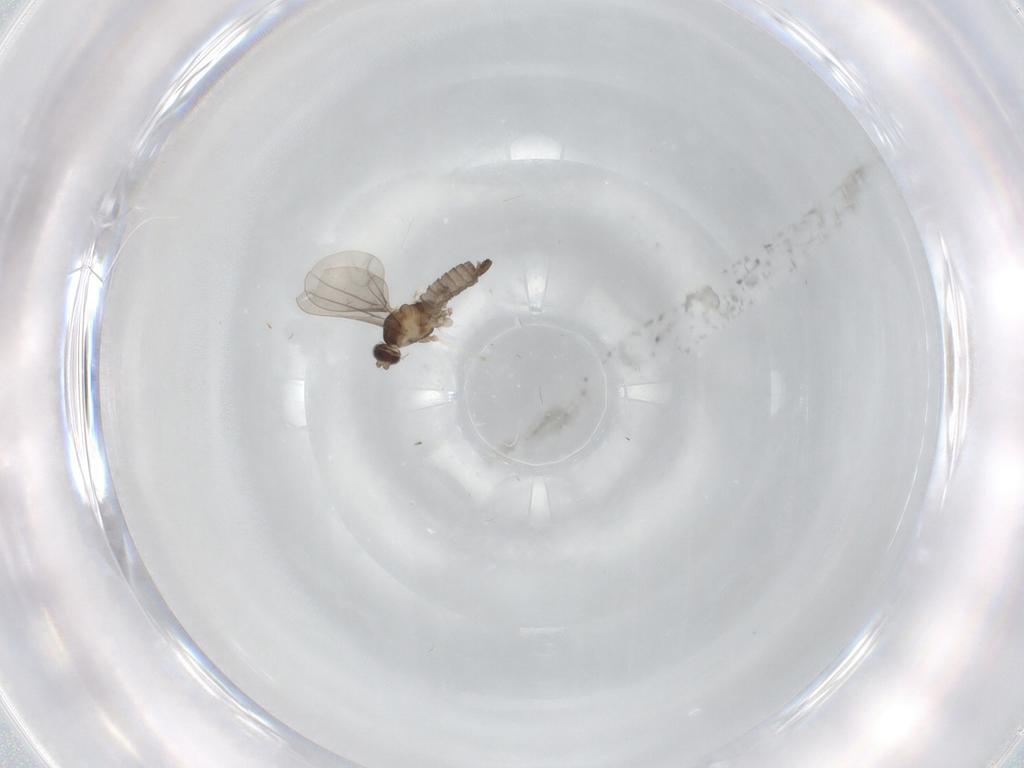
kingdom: Animalia
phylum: Arthropoda
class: Insecta
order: Diptera
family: Cecidomyiidae
